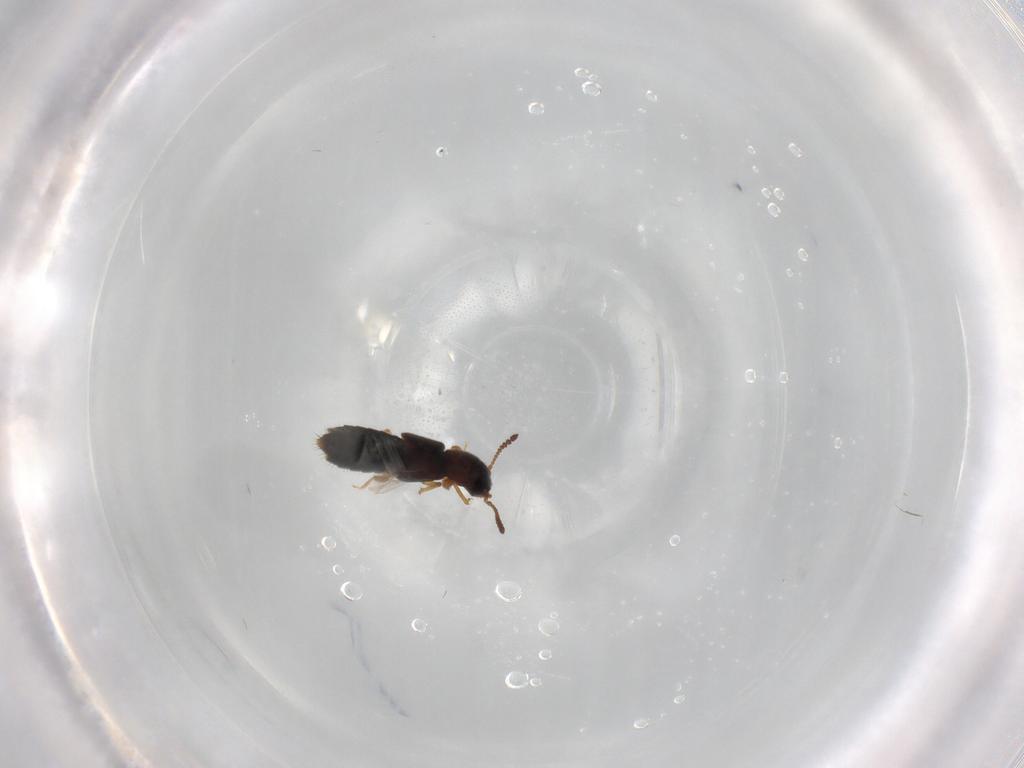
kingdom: Animalia
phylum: Arthropoda
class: Insecta
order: Coleoptera
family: Staphylinidae
